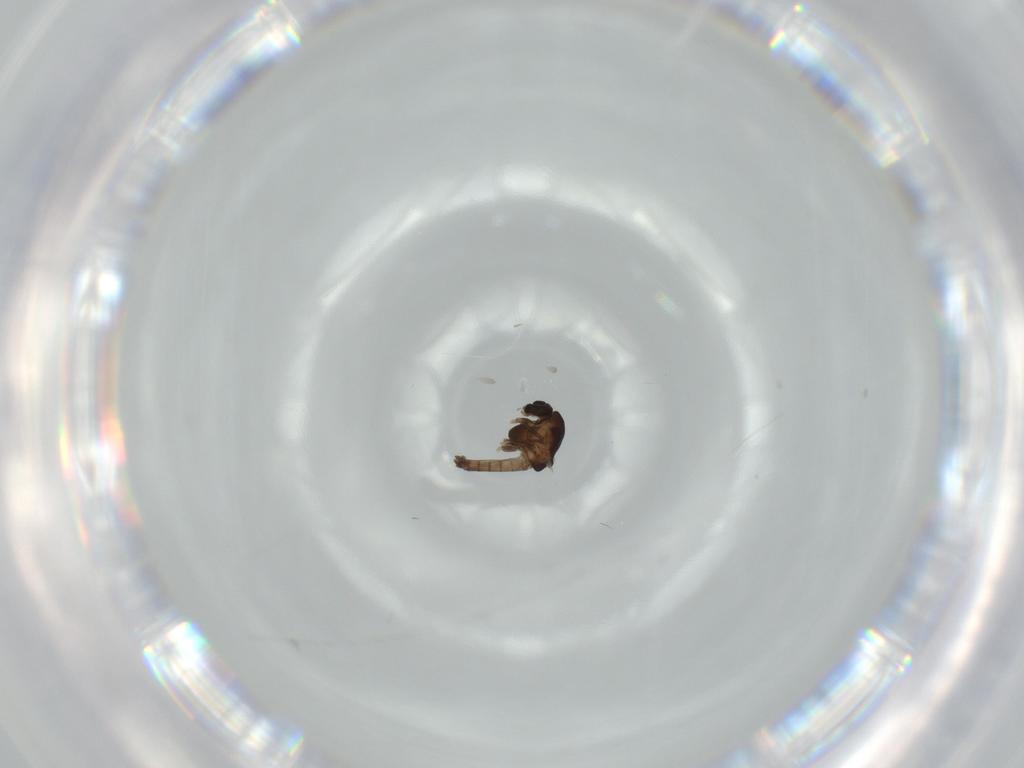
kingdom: Animalia
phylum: Arthropoda
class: Insecta
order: Diptera
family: Chironomidae
